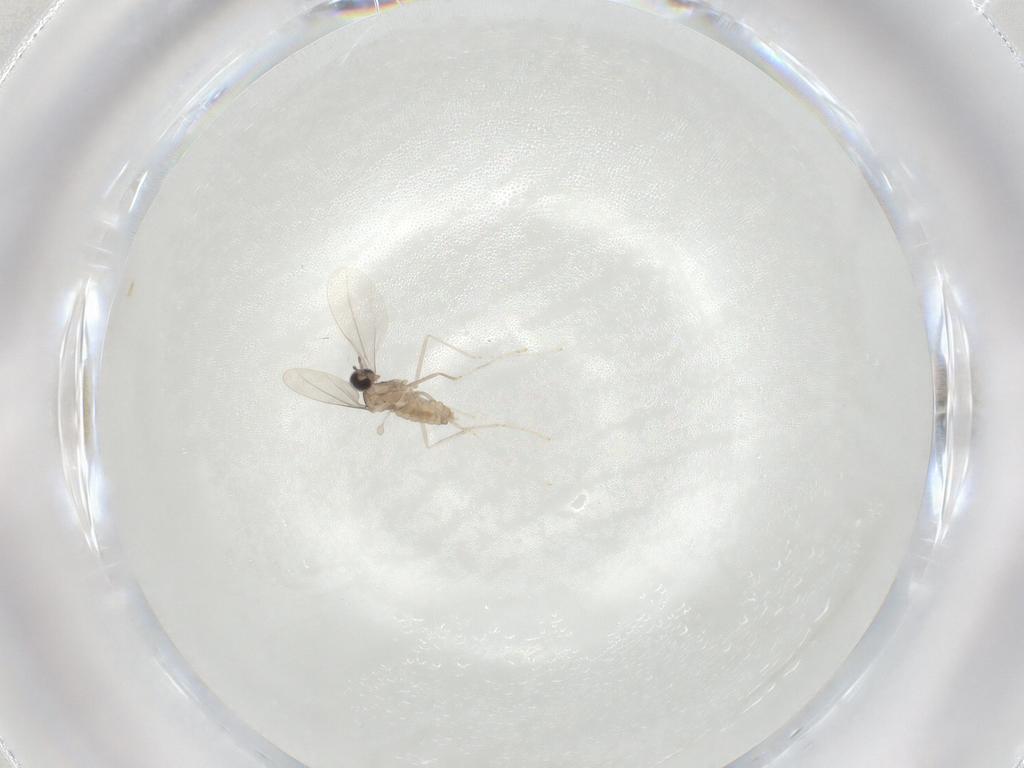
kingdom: Animalia
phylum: Arthropoda
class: Insecta
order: Diptera
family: Cecidomyiidae
